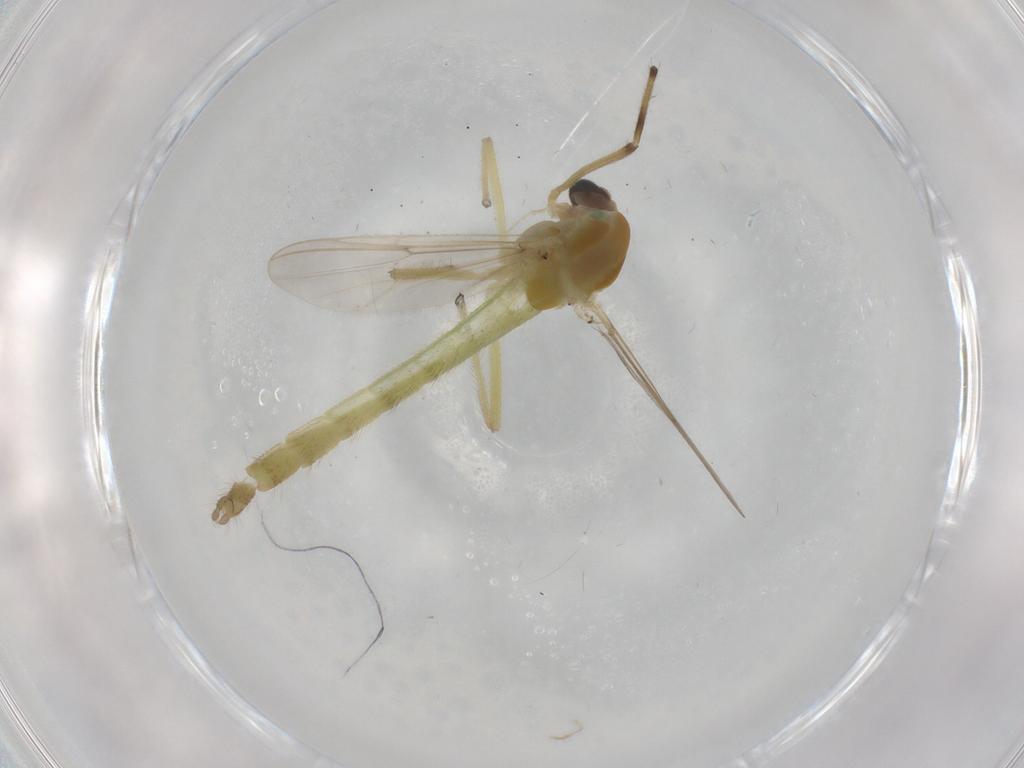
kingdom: Animalia
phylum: Arthropoda
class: Insecta
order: Diptera
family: Chironomidae
